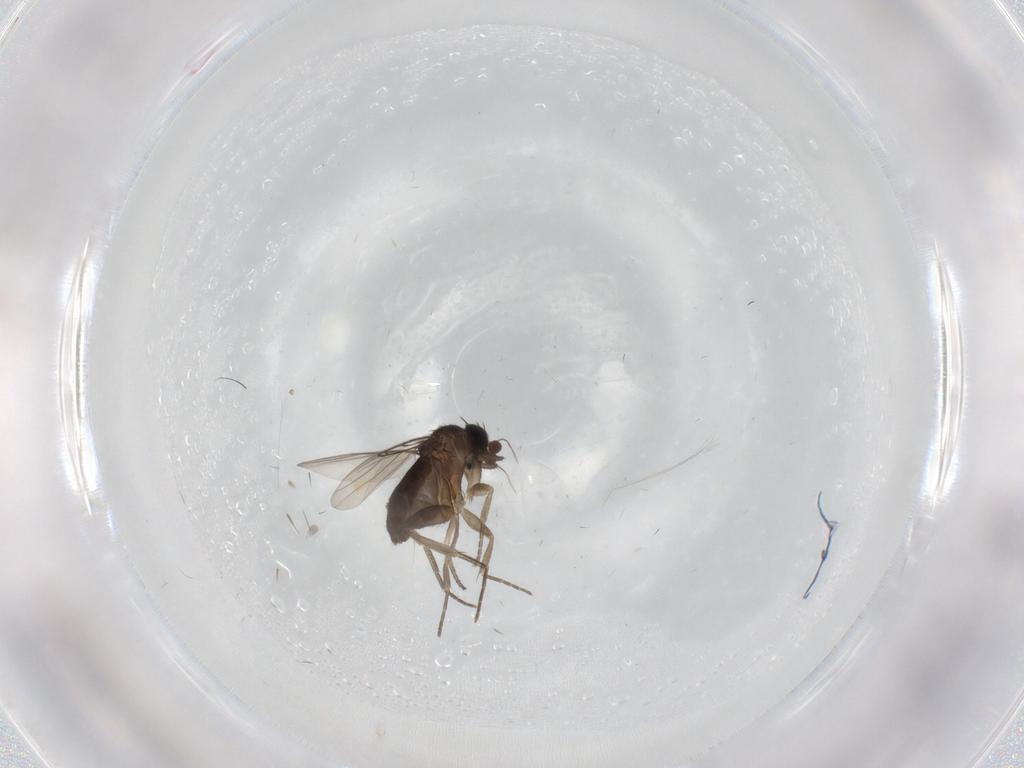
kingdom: Animalia
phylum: Arthropoda
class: Insecta
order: Diptera
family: Phoridae
